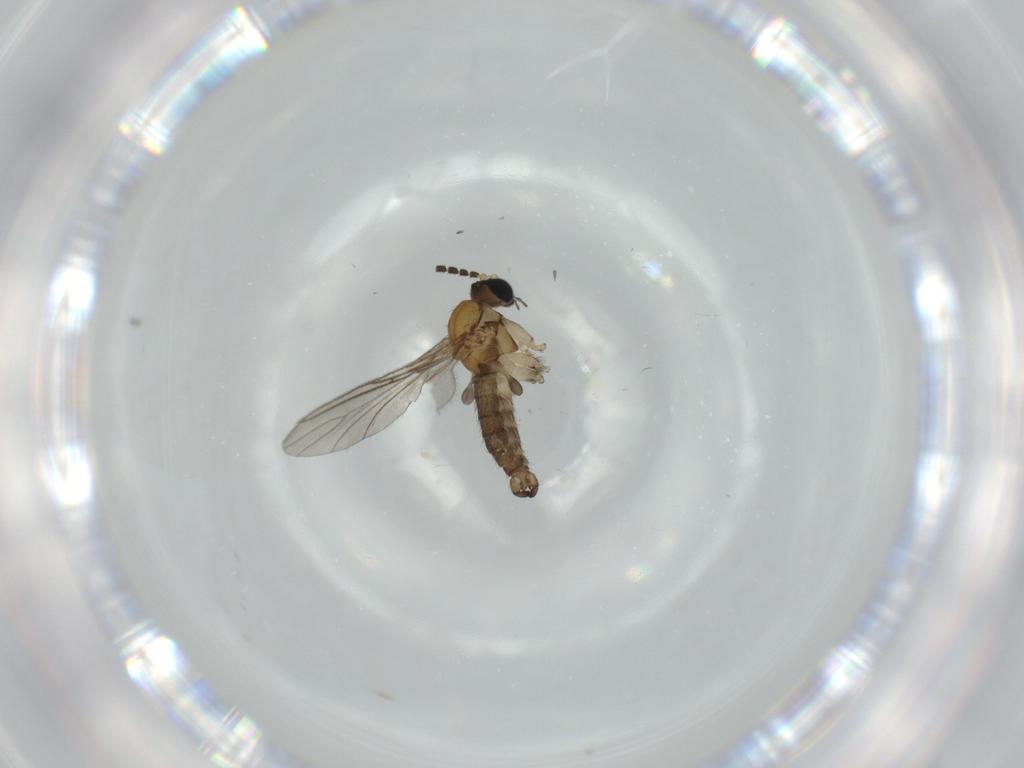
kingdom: Animalia
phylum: Arthropoda
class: Insecta
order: Diptera
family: Sciaridae
